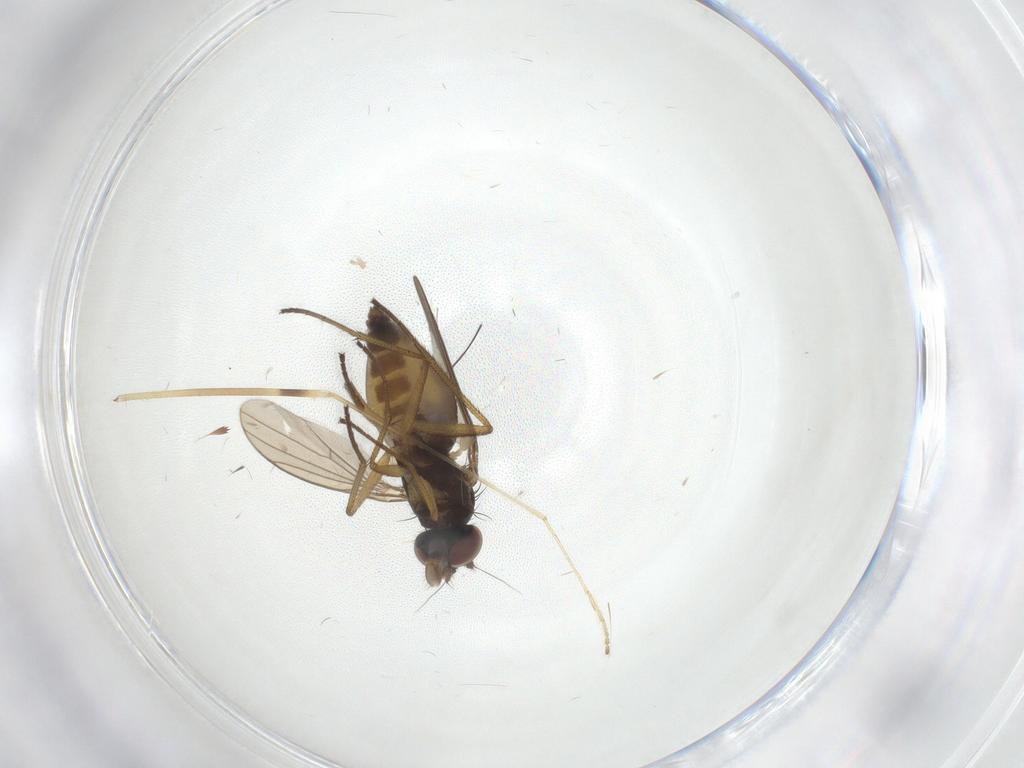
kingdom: Animalia
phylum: Arthropoda
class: Insecta
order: Diptera
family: Dolichopodidae
